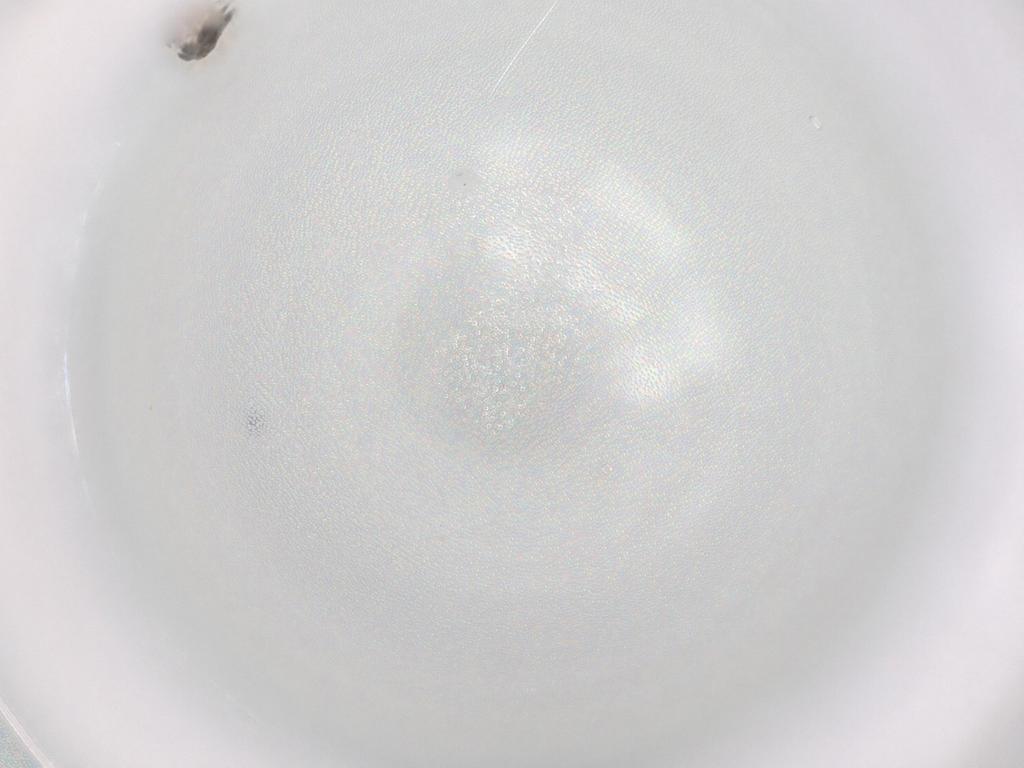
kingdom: Animalia
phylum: Arthropoda
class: Insecta
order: Diptera
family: Cecidomyiidae
